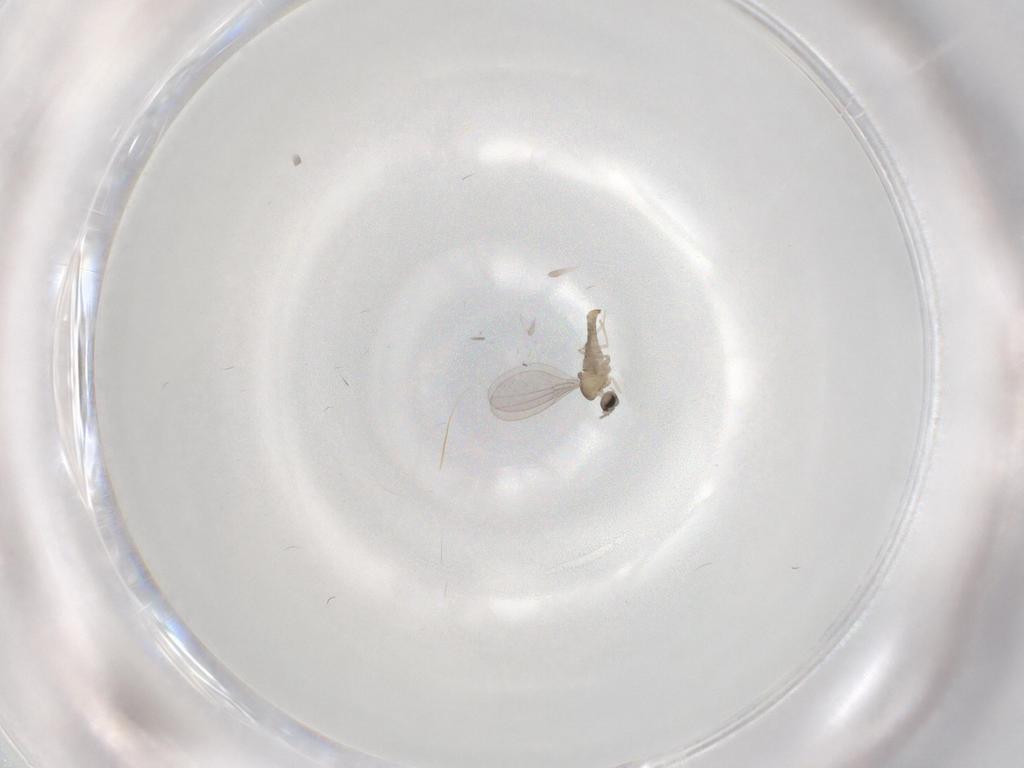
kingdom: Animalia
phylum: Arthropoda
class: Insecta
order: Diptera
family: Cecidomyiidae
